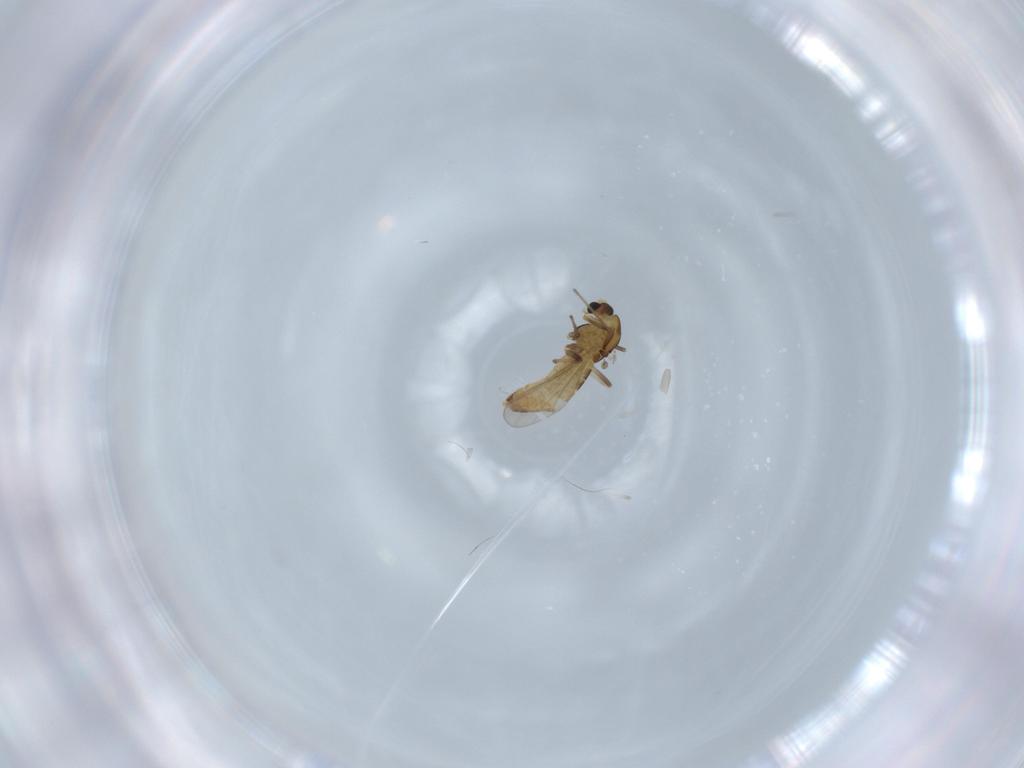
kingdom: Animalia
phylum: Arthropoda
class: Insecta
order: Diptera
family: Chironomidae
